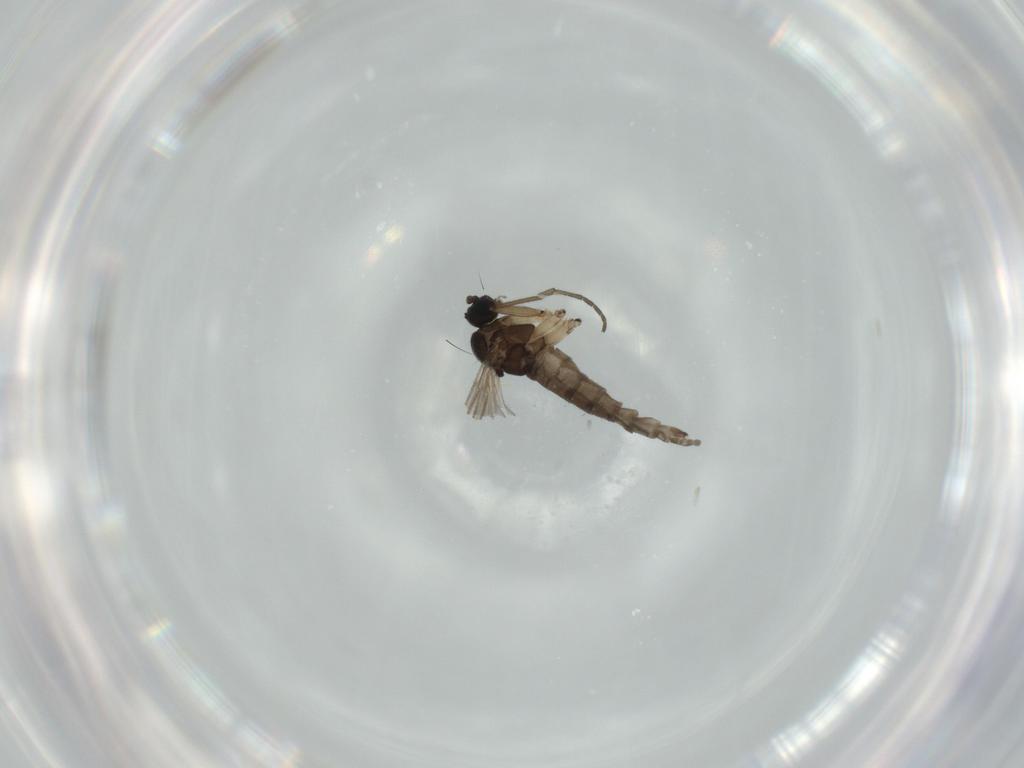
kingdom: Animalia
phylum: Arthropoda
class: Insecta
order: Diptera
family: Sciaridae
